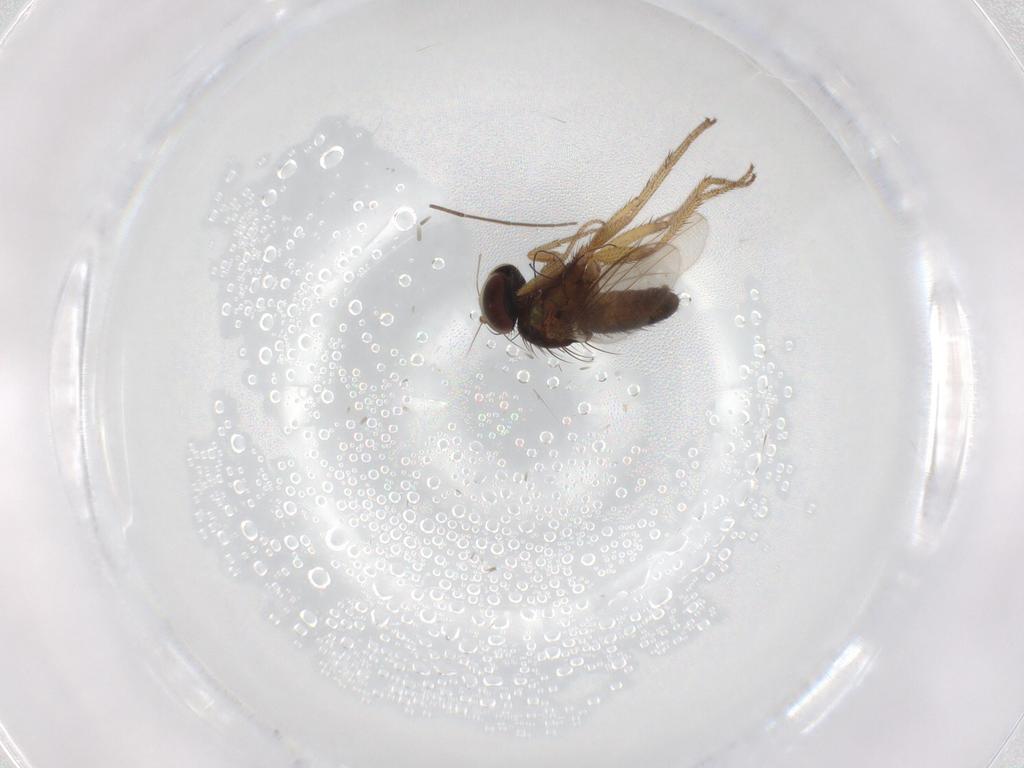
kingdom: Animalia
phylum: Arthropoda
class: Insecta
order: Diptera
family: Chironomidae
